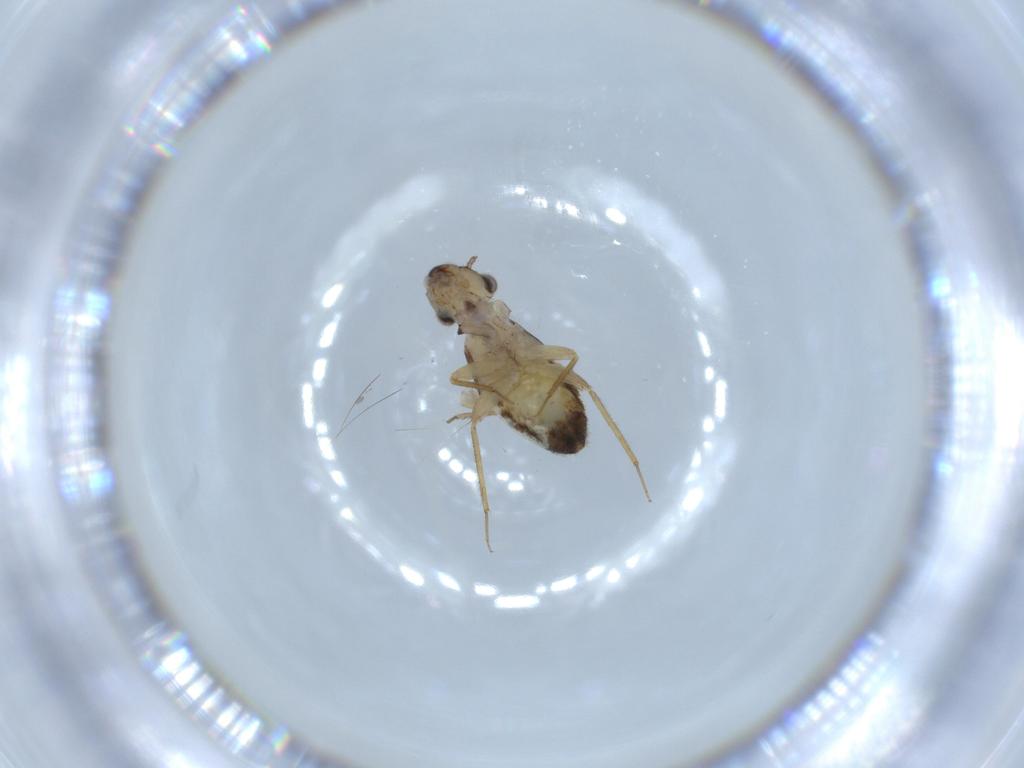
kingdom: Animalia
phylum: Arthropoda
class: Insecta
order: Psocodea
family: Lepidopsocidae
